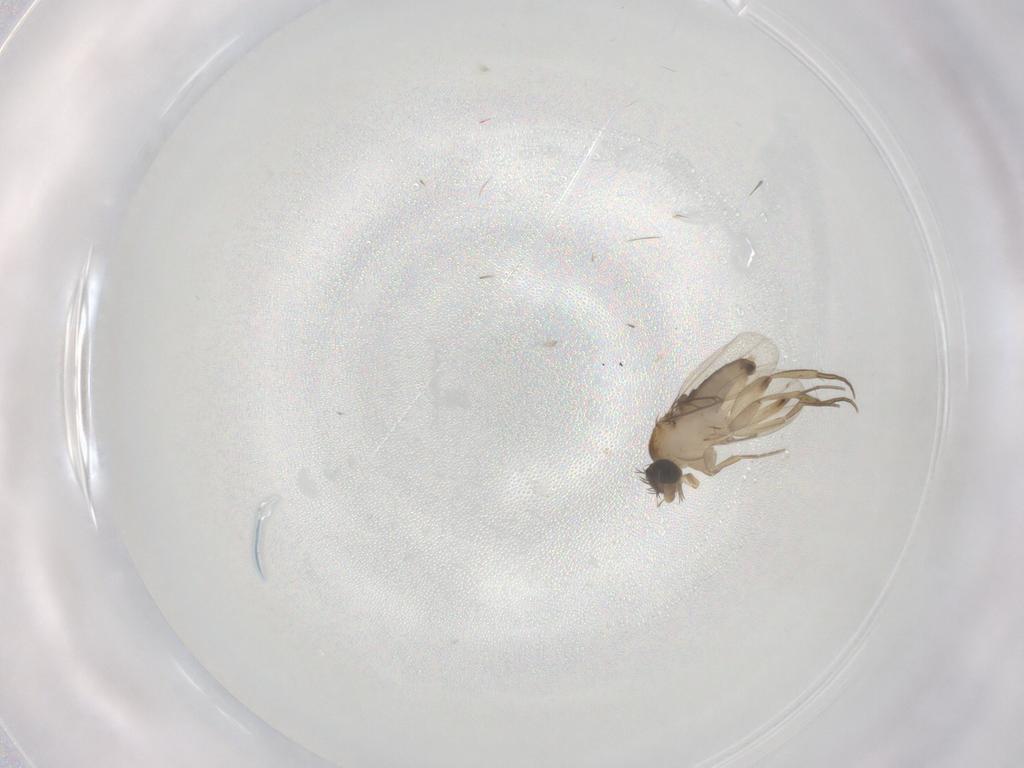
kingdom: Animalia
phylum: Arthropoda
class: Insecta
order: Diptera
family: Phoridae
